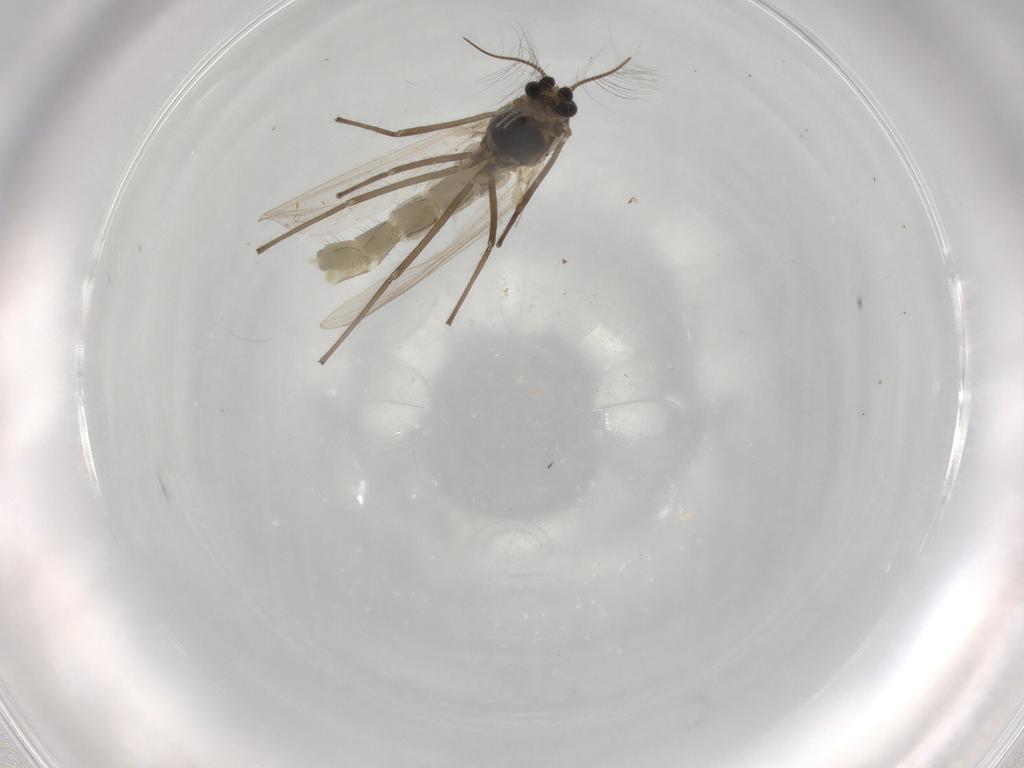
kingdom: Animalia
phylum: Arthropoda
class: Insecta
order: Diptera
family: Chironomidae
